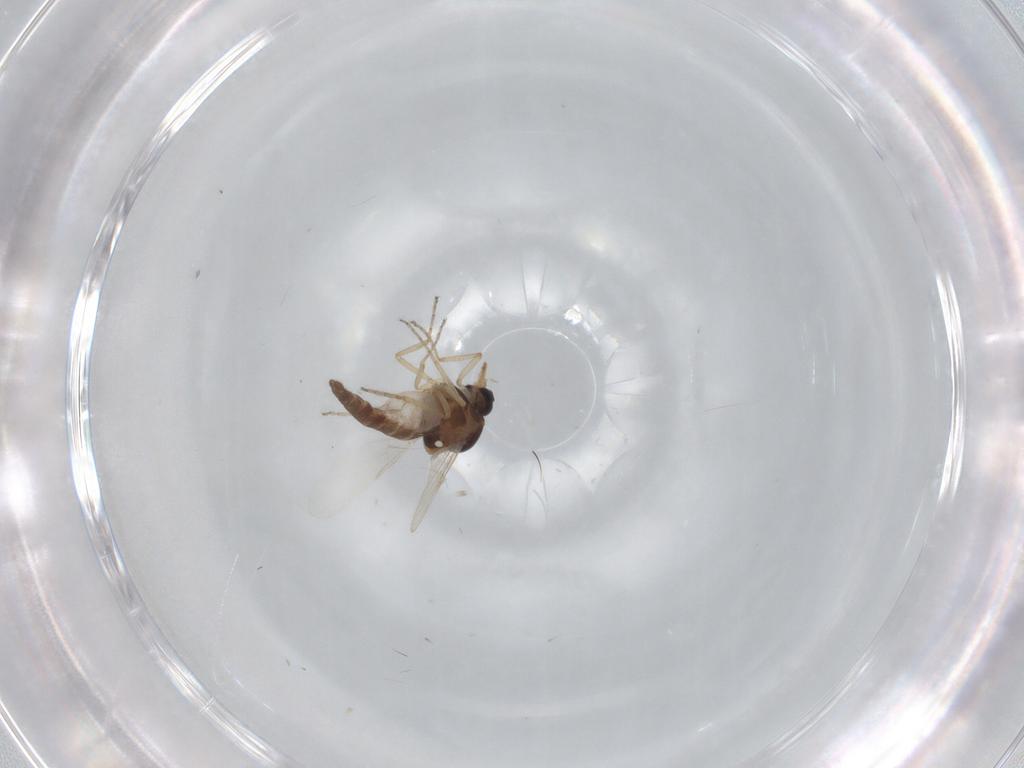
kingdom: Animalia
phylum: Arthropoda
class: Insecta
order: Diptera
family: Ceratopogonidae
